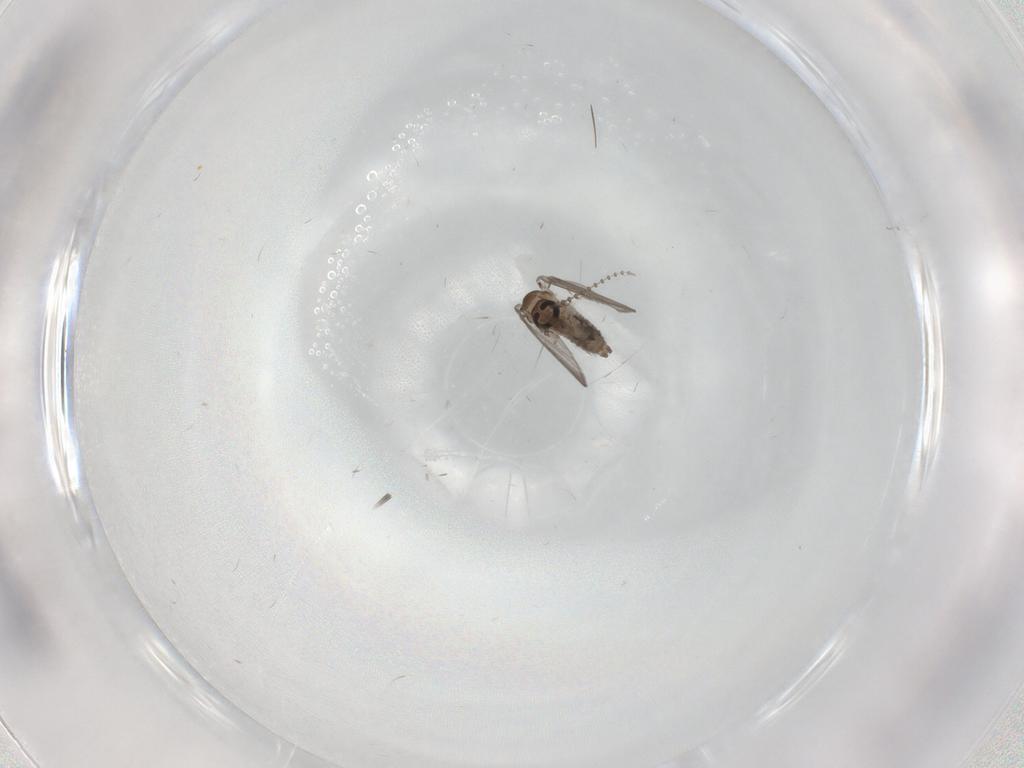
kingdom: Animalia
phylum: Arthropoda
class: Insecta
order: Diptera
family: Psychodidae
